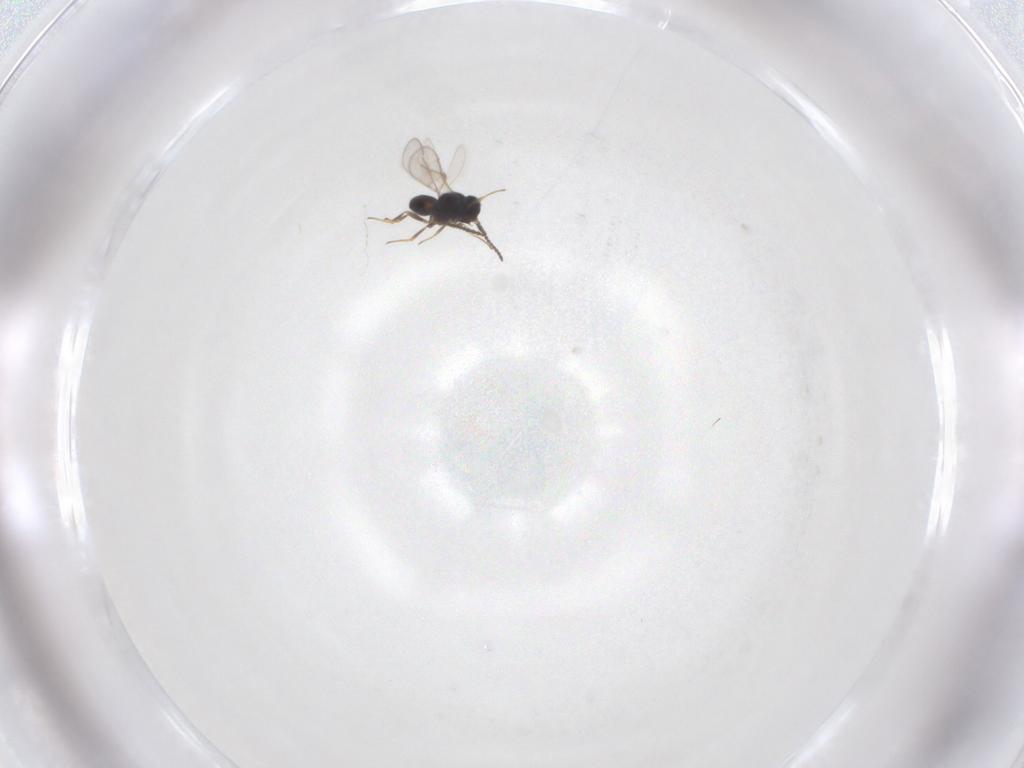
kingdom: Animalia
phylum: Arthropoda
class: Insecta
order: Hymenoptera
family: Scelionidae
